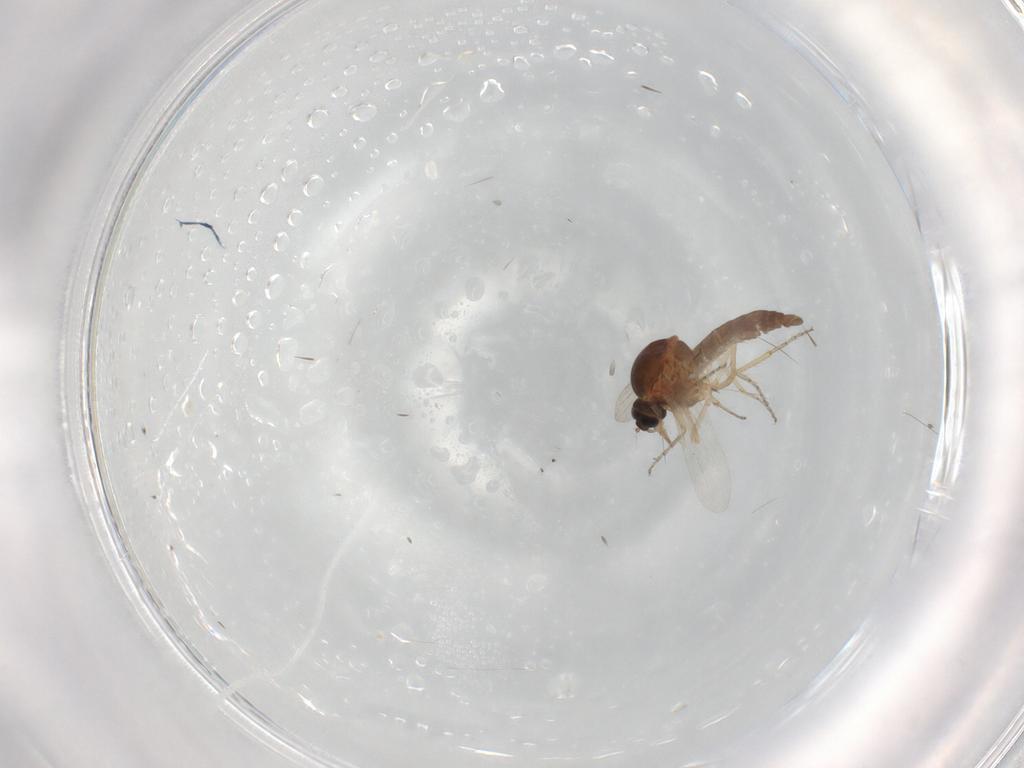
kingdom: Animalia
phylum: Arthropoda
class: Insecta
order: Diptera
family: Ceratopogonidae
